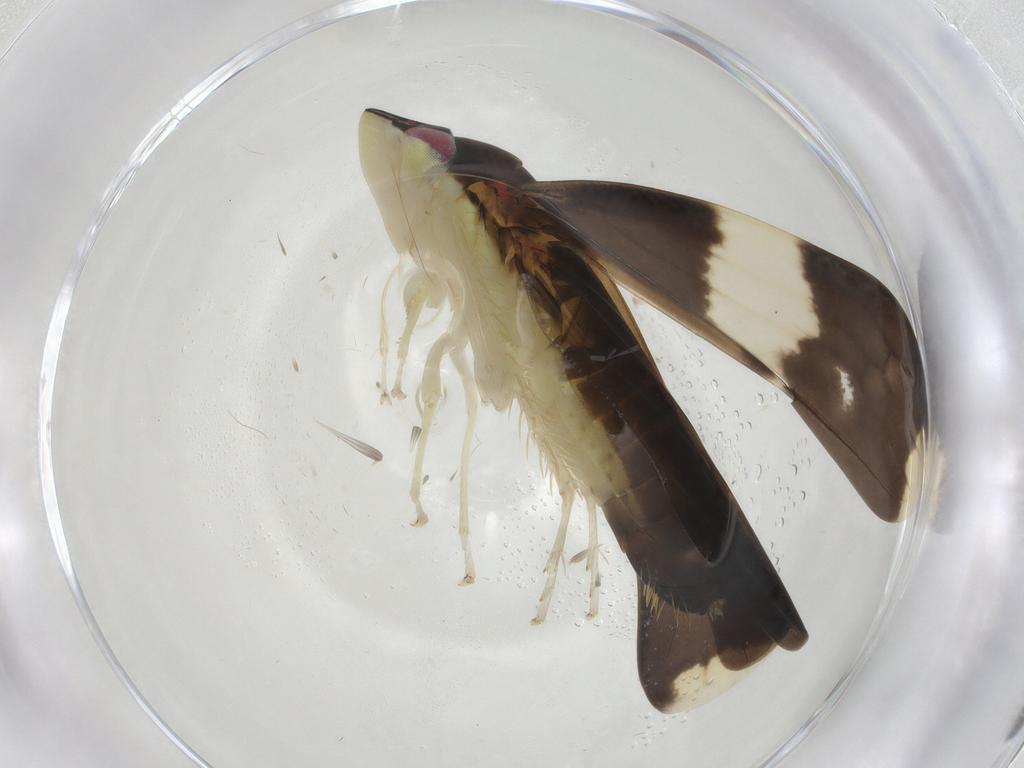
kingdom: Animalia
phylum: Arthropoda
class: Insecta
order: Hemiptera
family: Cicadellidae
